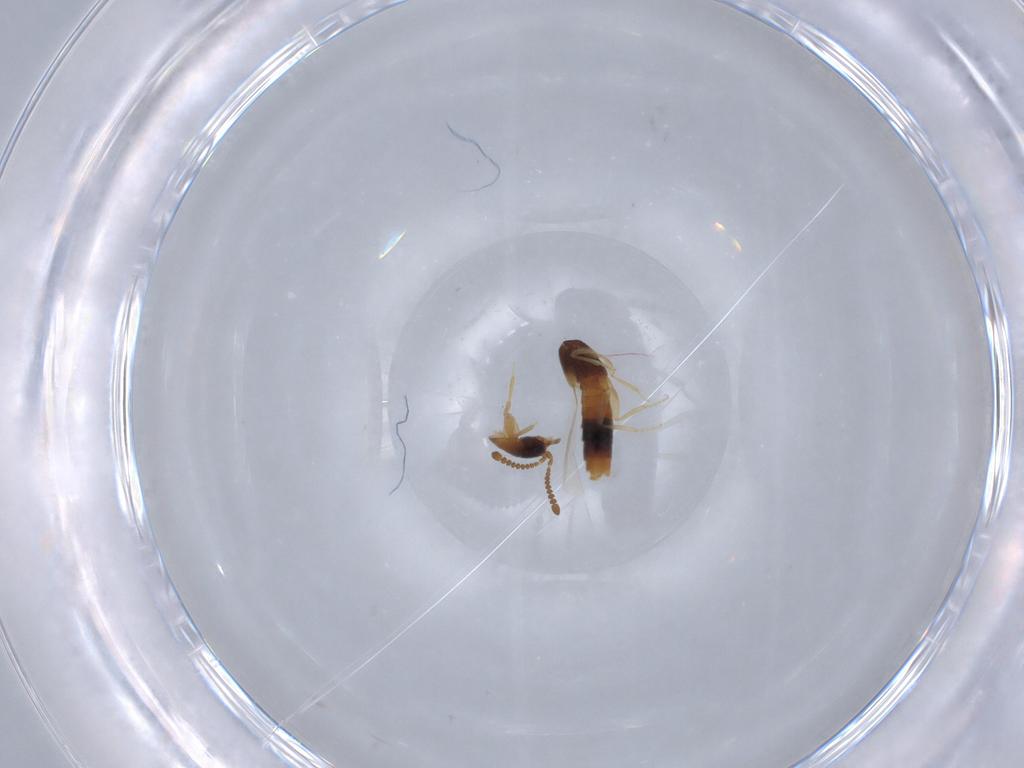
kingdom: Animalia
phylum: Arthropoda
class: Insecta
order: Coleoptera
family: Staphylinidae
